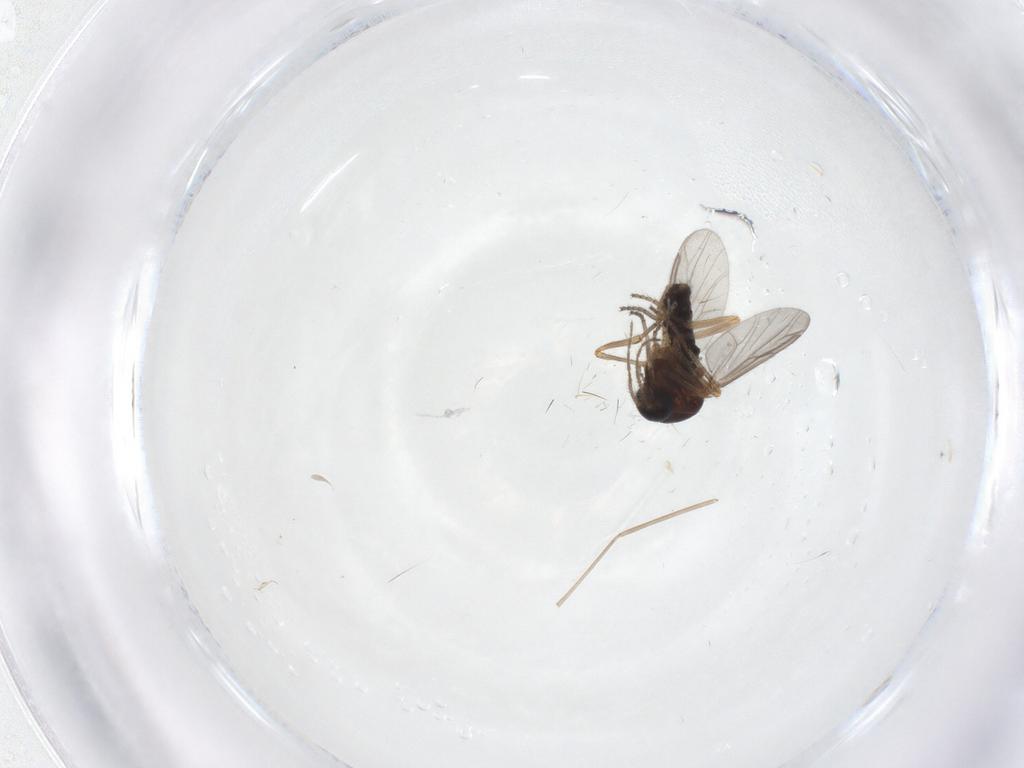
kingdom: Animalia
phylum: Arthropoda
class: Insecta
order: Diptera
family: Ceratopogonidae
